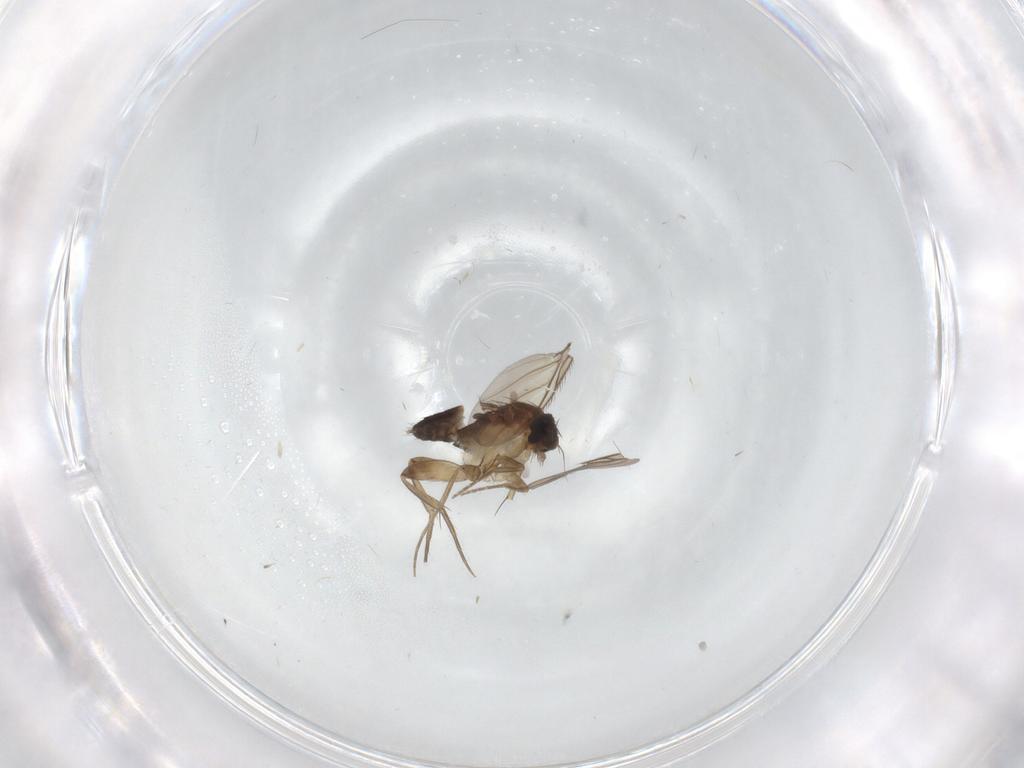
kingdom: Animalia
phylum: Arthropoda
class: Insecta
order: Diptera
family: Phoridae
